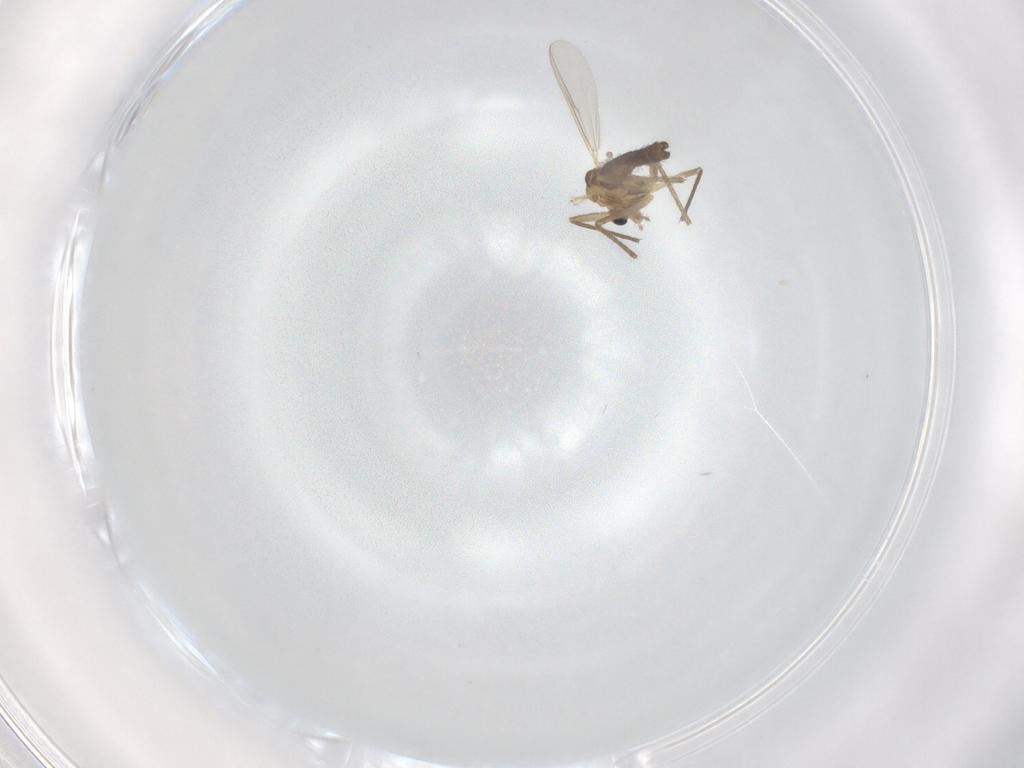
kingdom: Animalia
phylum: Arthropoda
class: Insecta
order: Diptera
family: Chironomidae
